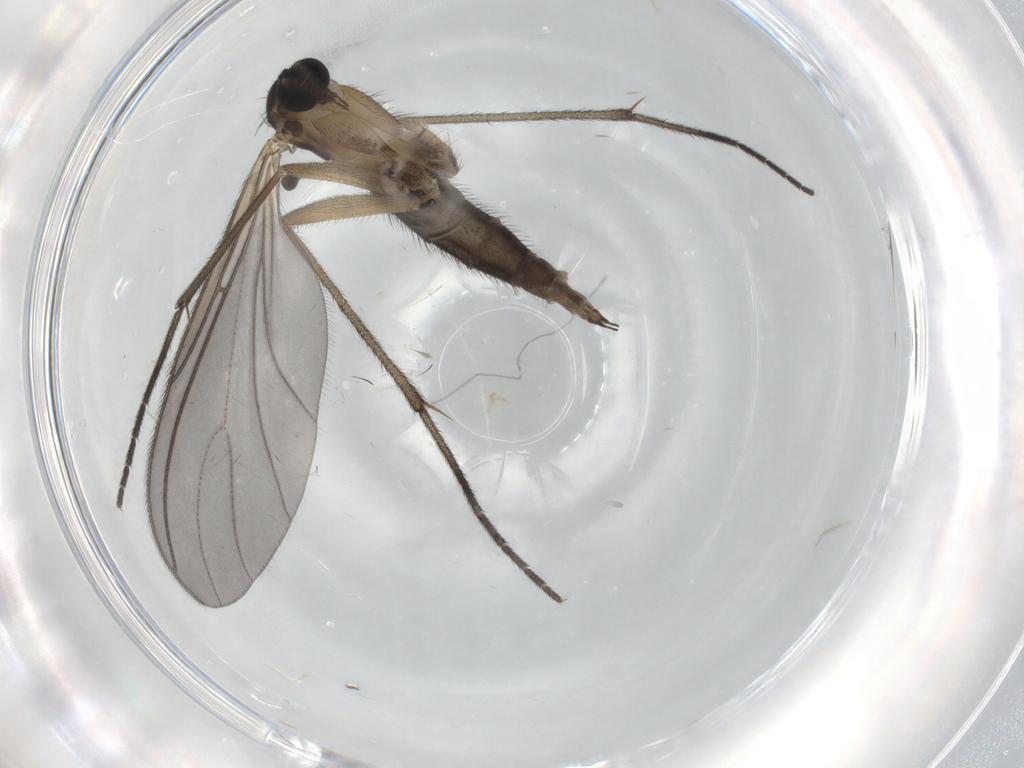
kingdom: Animalia
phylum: Arthropoda
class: Insecta
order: Diptera
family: Sciaridae
